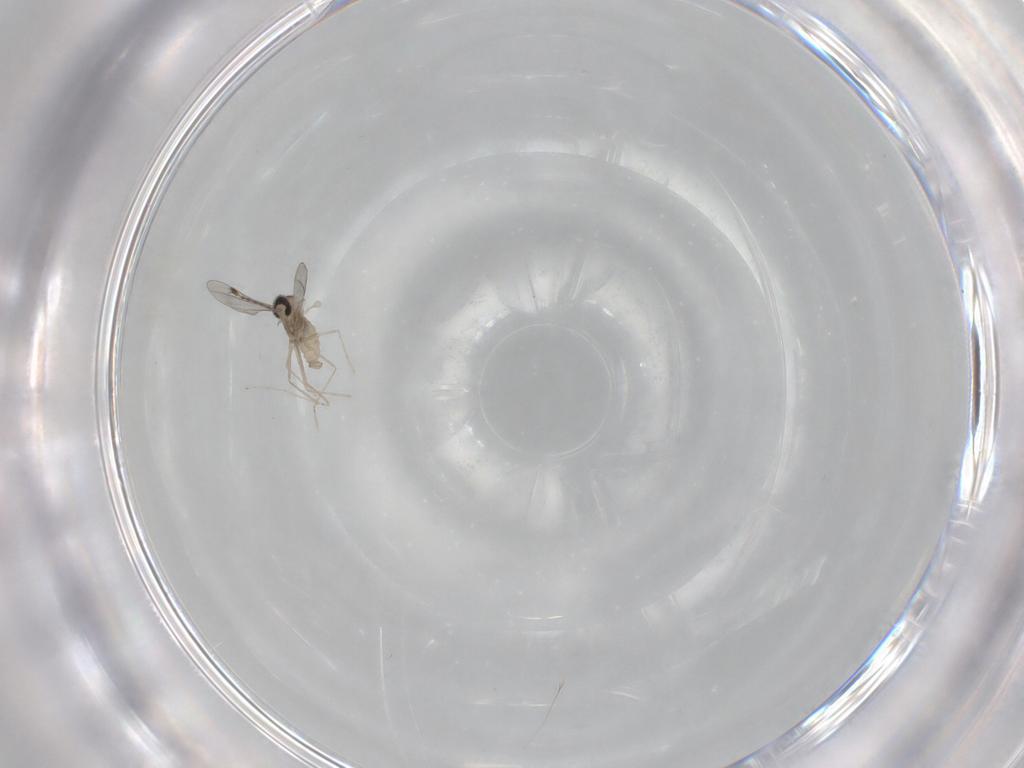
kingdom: Animalia
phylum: Arthropoda
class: Insecta
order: Diptera
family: Cecidomyiidae
